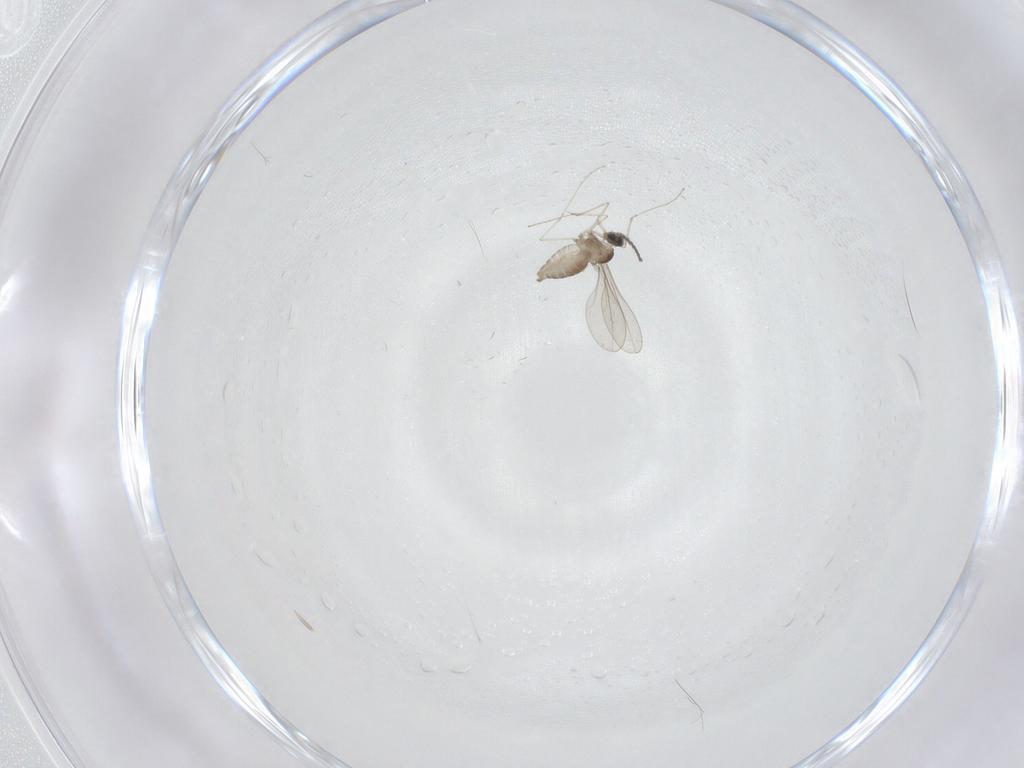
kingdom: Animalia
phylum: Arthropoda
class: Insecta
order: Diptera
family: Cecidomyiidae
